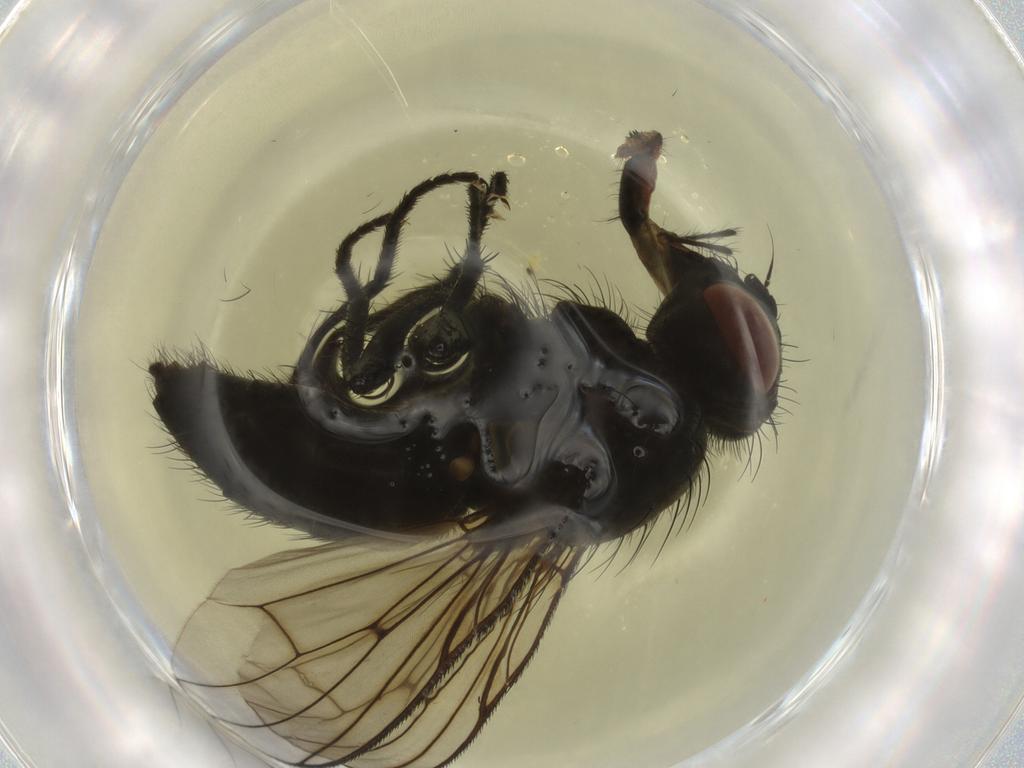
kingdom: Animalia
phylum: Arthropoda
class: Insecta
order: Diptera
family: Muscidae
